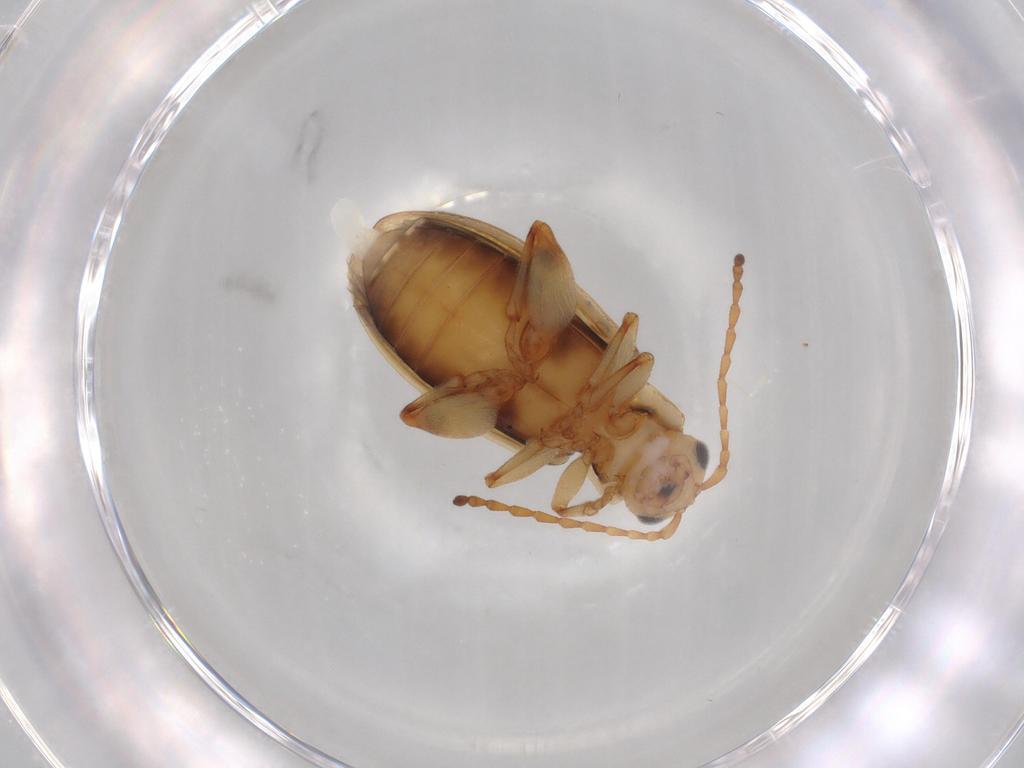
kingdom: Animalia
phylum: Arthropoda
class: Insecta
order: Coleoptera
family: Chrysomelidae
